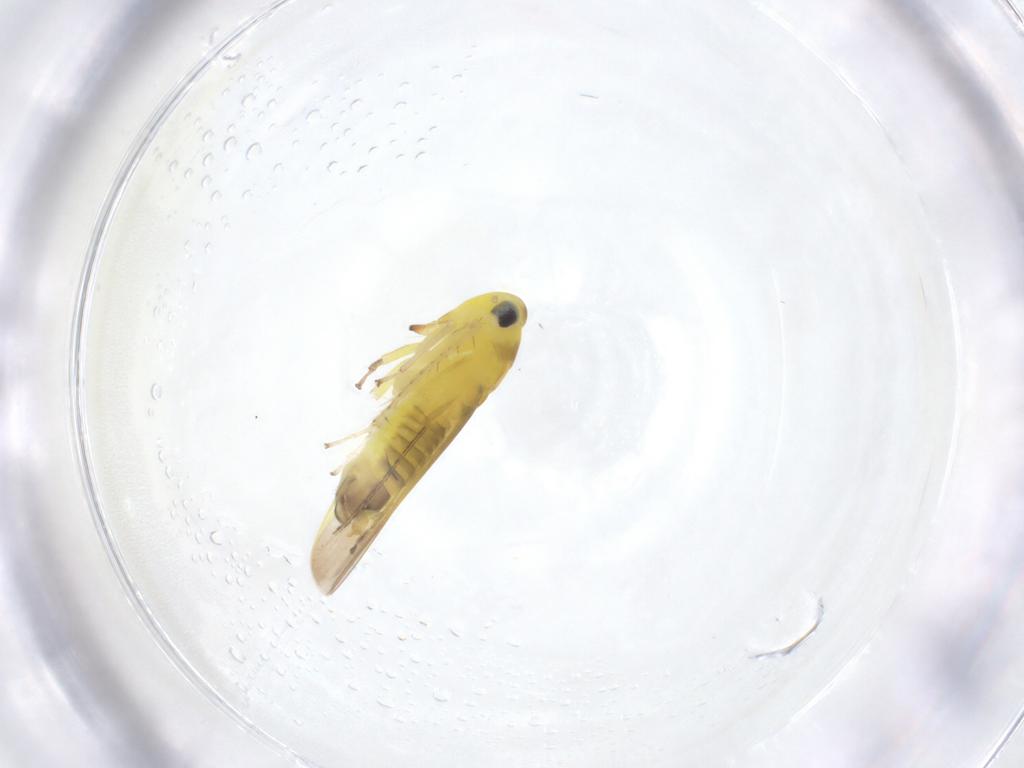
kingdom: Animalia
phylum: Arthropoda
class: Insecta
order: Hemiptera
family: Cicadellidae
